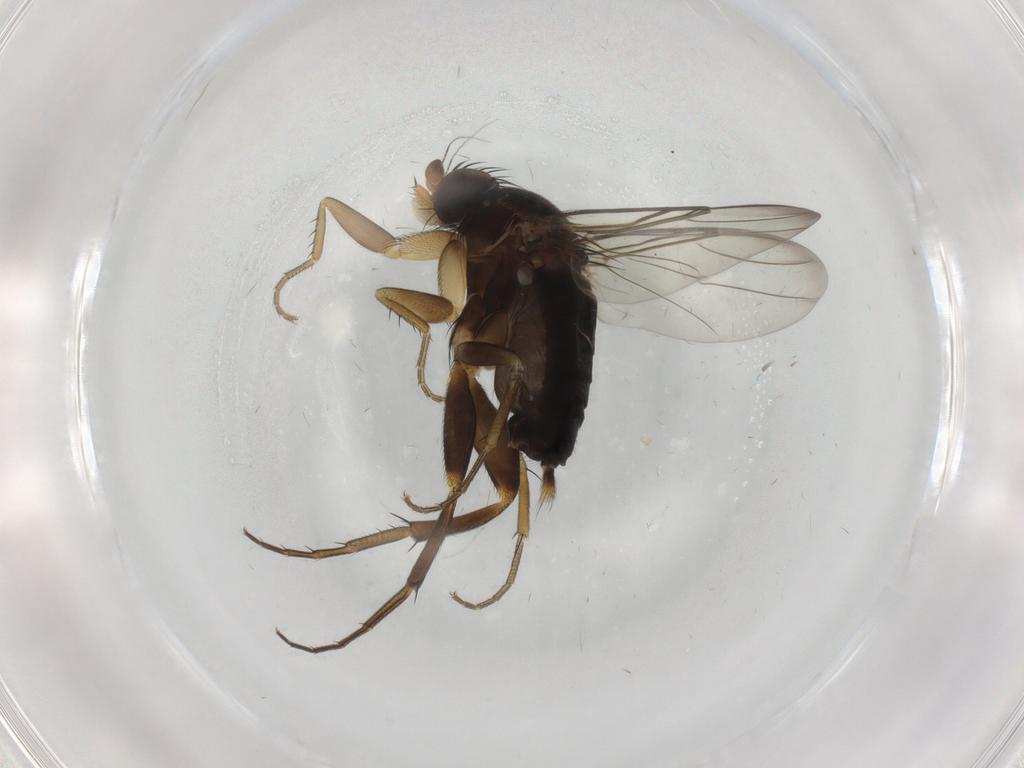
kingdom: Animalia
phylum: Arthropoda
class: Insecta
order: Diptera
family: Phoridae
